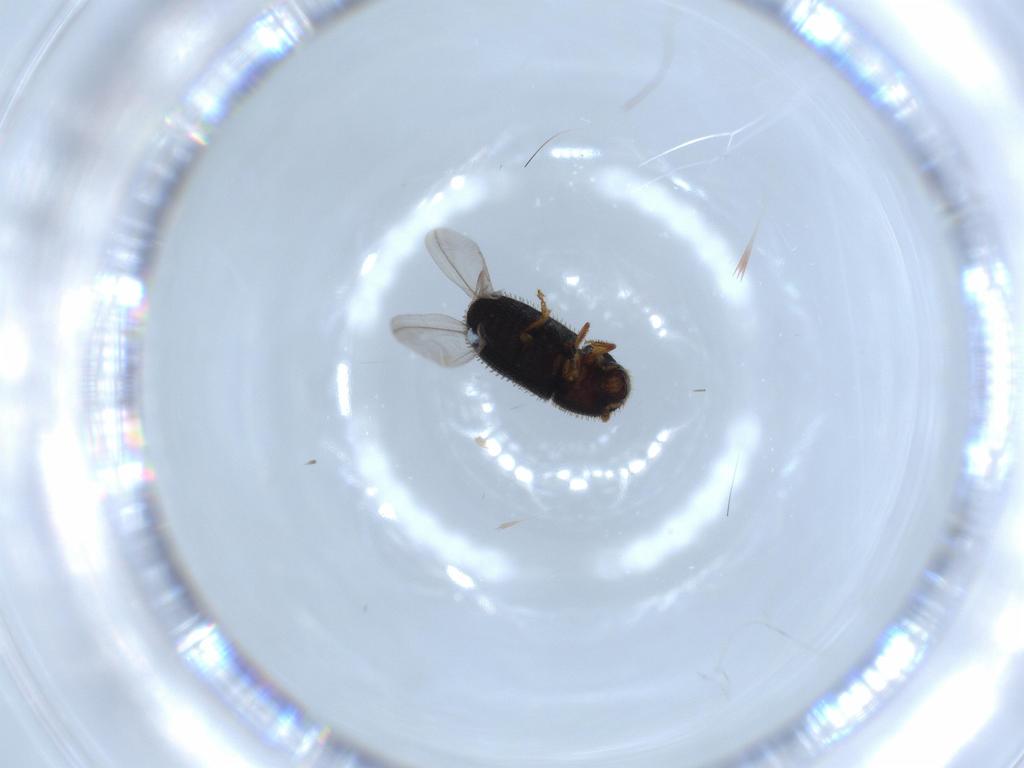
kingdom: Animalia
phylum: Arthropoda
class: Insecta
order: Coleoptera
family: Curculionidae
